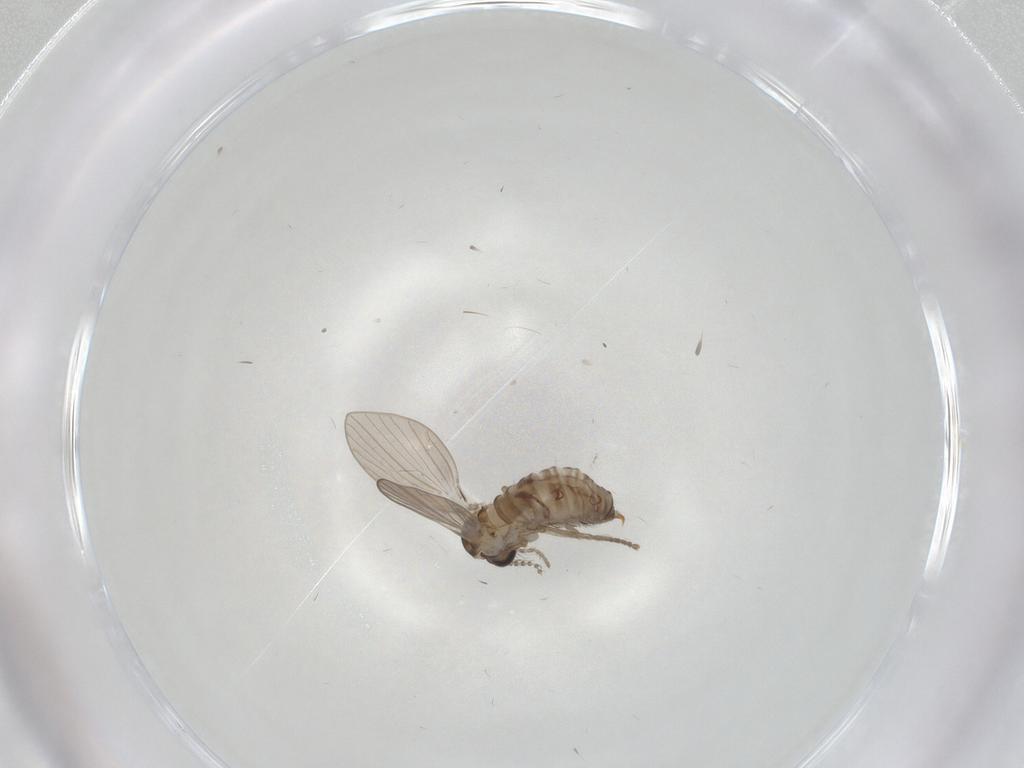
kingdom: Animalia
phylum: Arthropoda
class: Insecta
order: Diptera
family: Psychodidae
